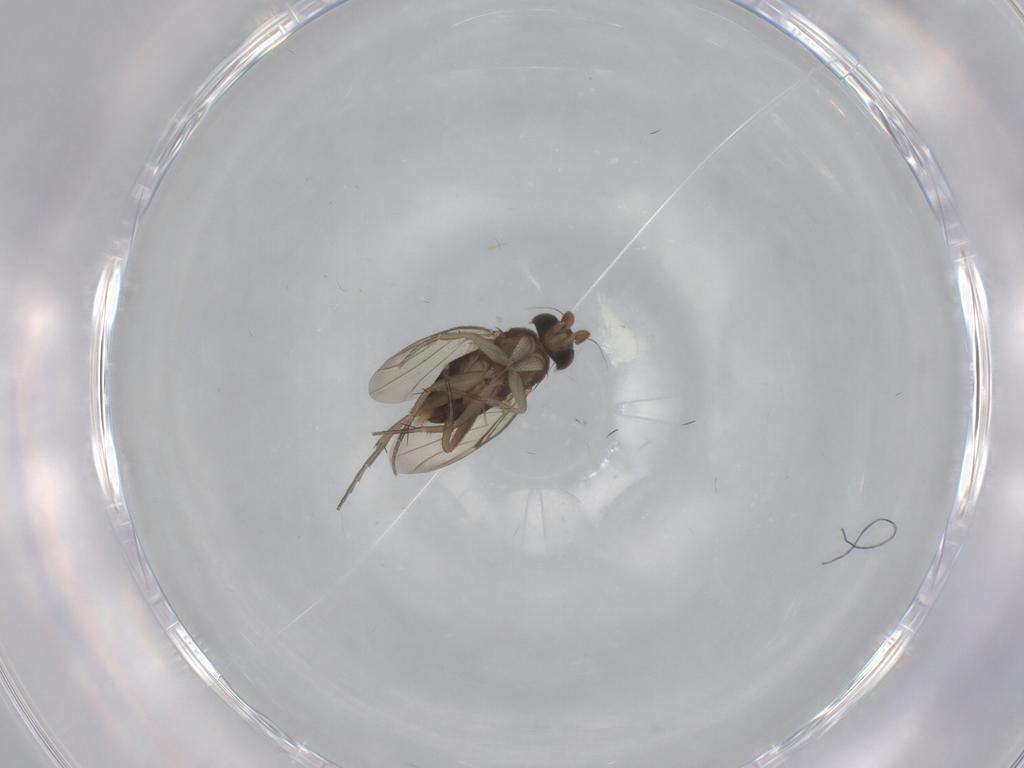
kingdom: Animalia
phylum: Arthropoda
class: Insecta
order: Diptera
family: Phoridae
